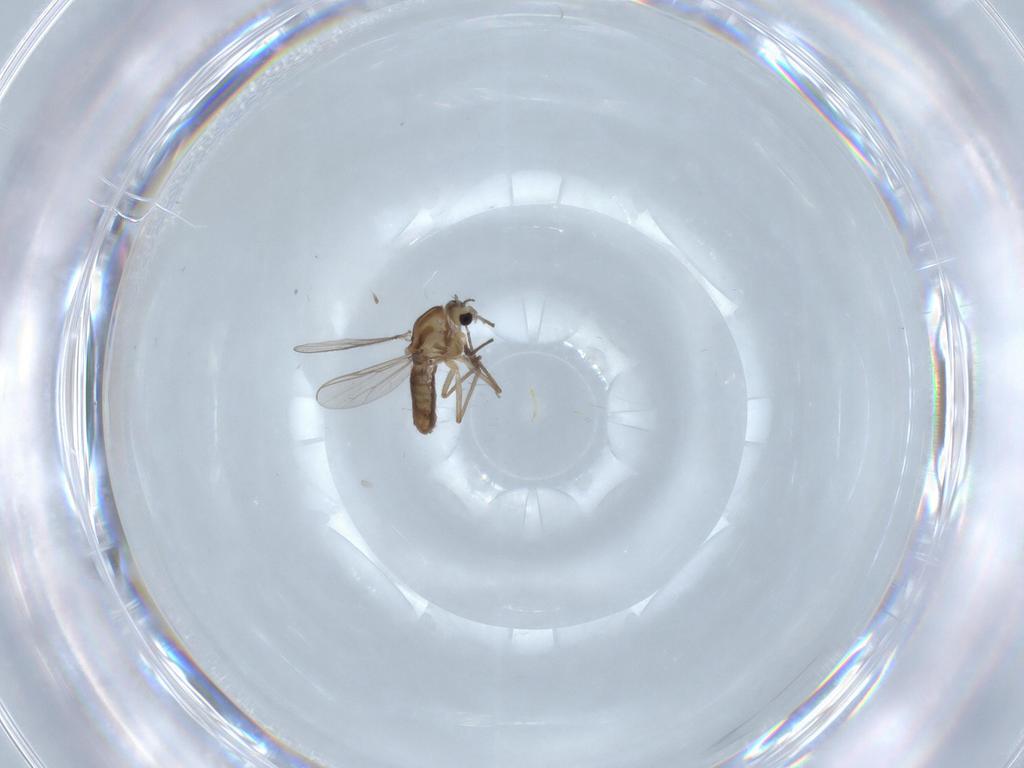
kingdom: Animalia
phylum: Arthropoda
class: Insecta
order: Diptera
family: Chironomidae
